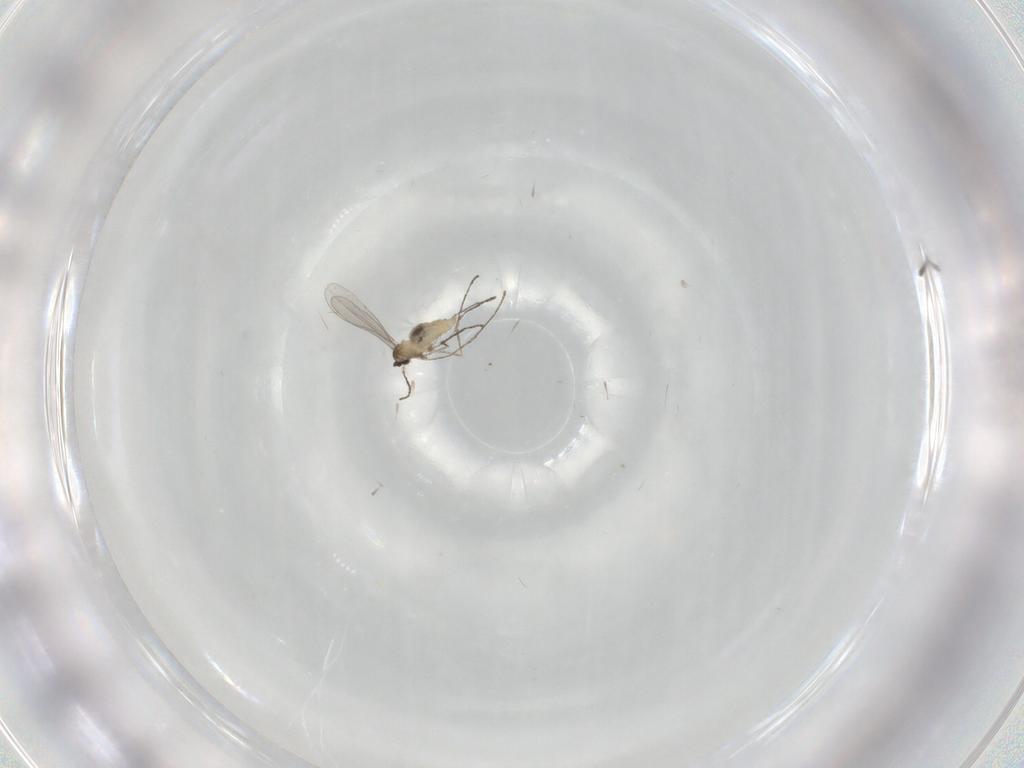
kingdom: Animalia
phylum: Arthropoda
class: Insecta
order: Diptera
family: Cecidomyiidae
